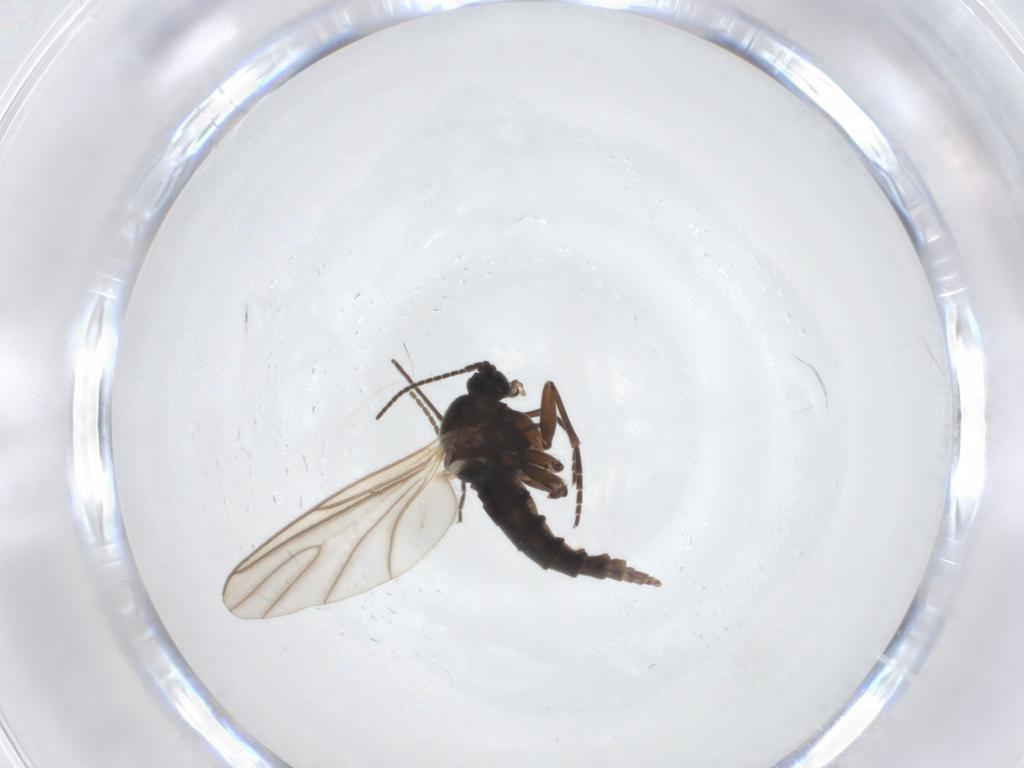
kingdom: Animalia
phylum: Arthropoda
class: Insecta
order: Diptera
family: Sciaridae
